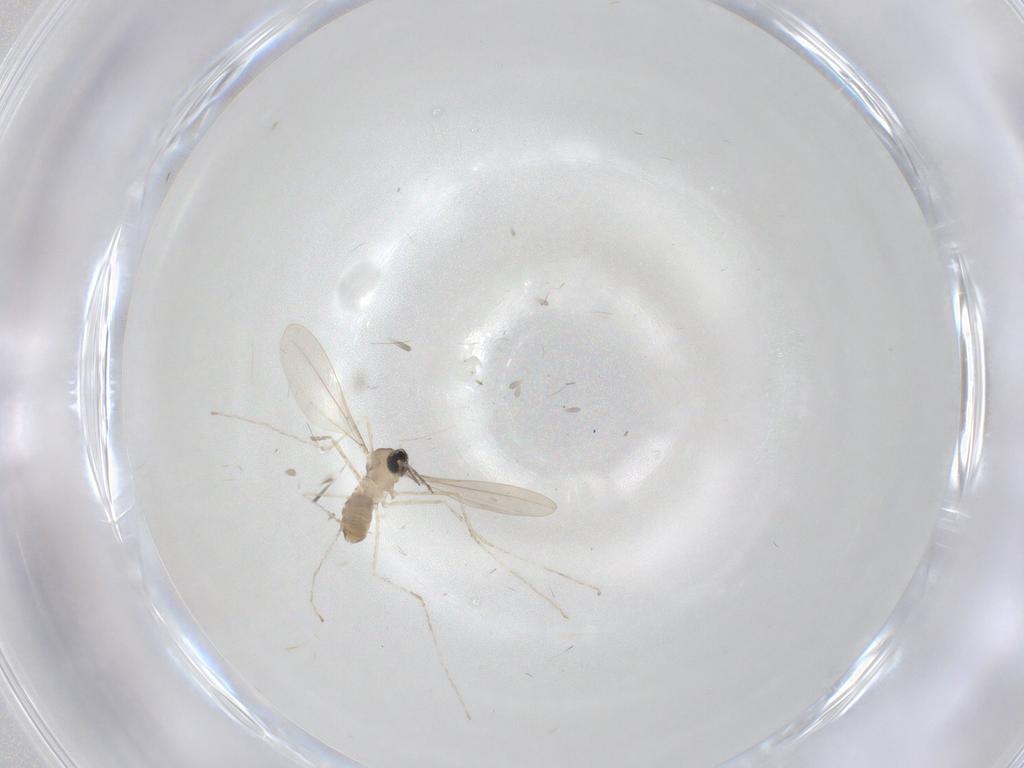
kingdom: Animalia
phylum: Arthropoda
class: Insecta
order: Diptera
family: Cecidomyiidae
